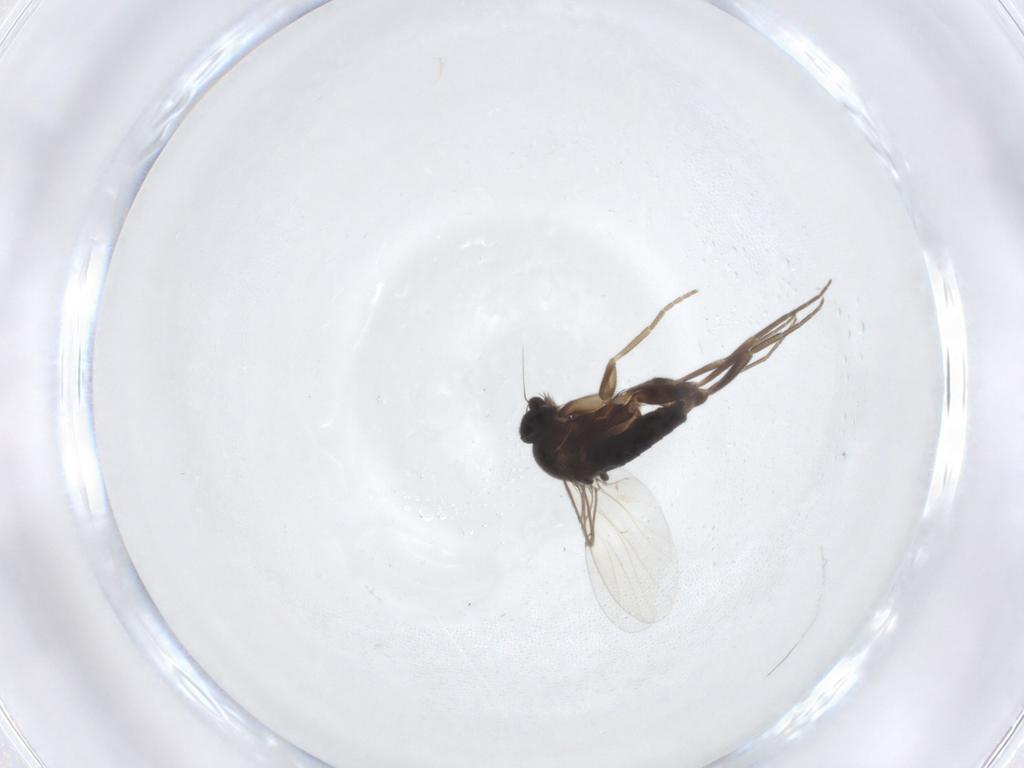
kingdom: Animalia
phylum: Arthropoda
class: Insecta
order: Diptera
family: Phoridae
